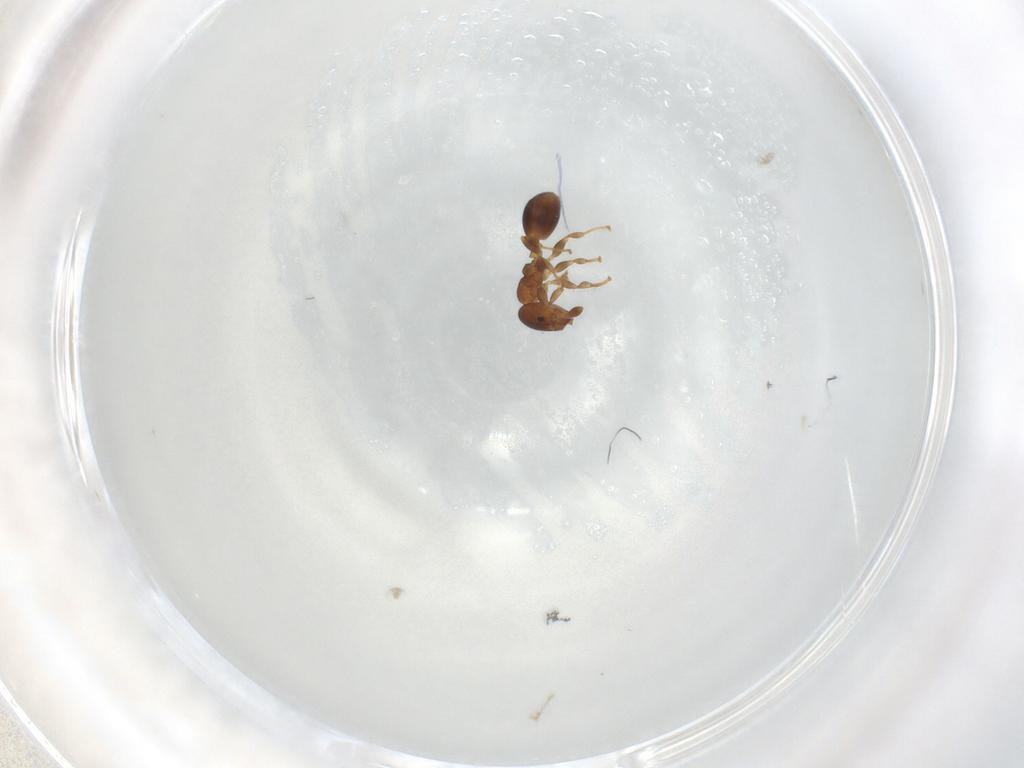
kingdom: Animalia
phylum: Arthropoda
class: Insecta
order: Hymenoptera
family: Formicidae
